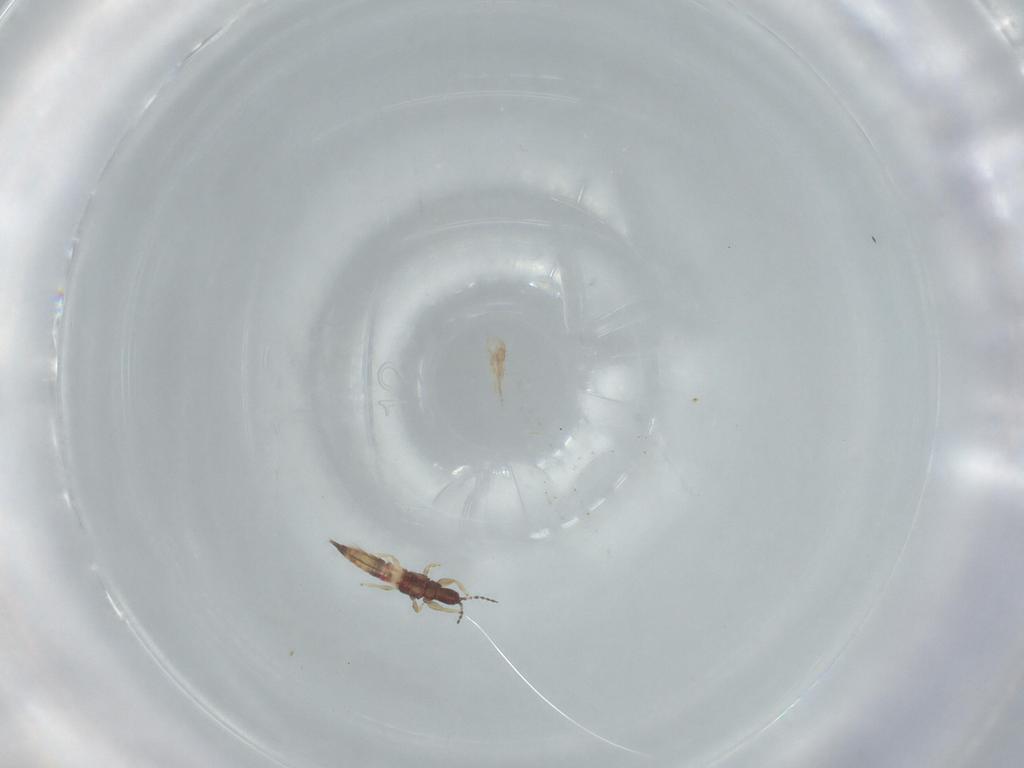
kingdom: Animalia
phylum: Arthropoda
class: Insecta
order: Thysanoptera
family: Phlaeothripidae
